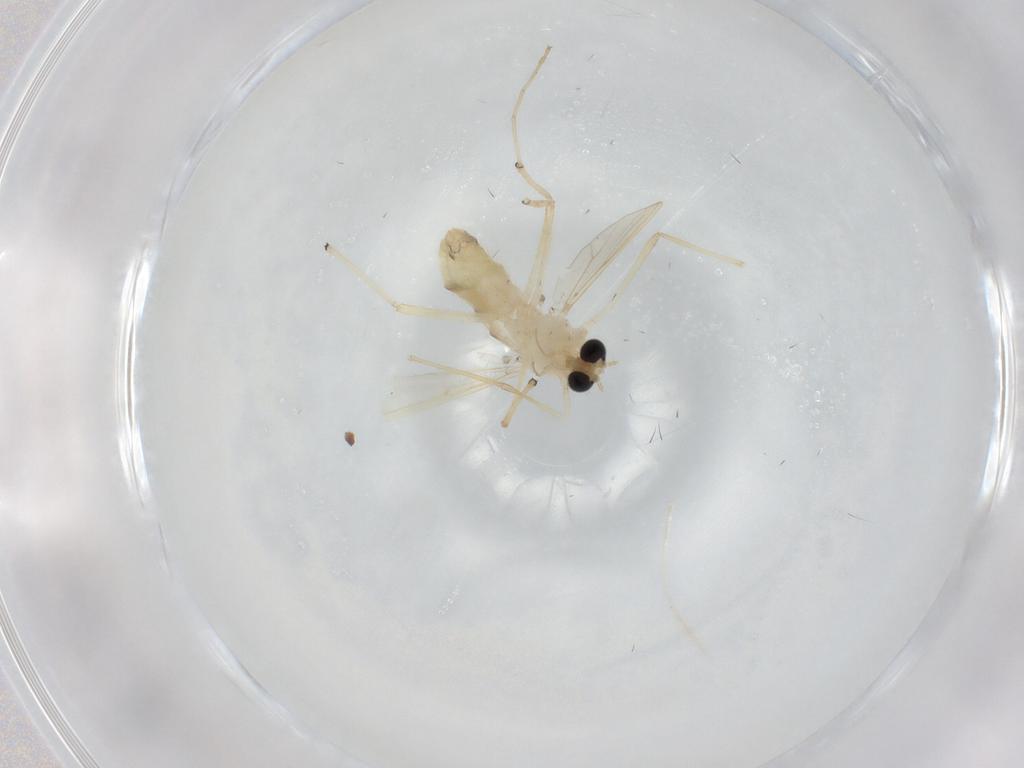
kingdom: Animalia
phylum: Arthropoda
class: Insecta
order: Diptera
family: Chironomidae
